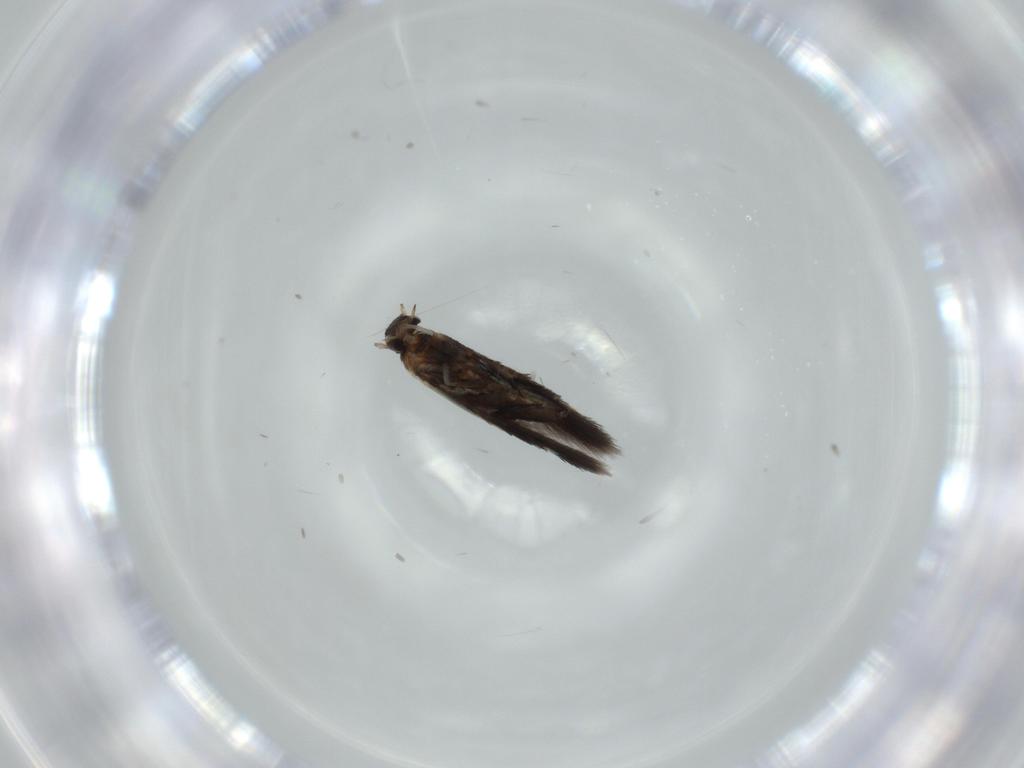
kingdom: Animalia
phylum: Arthropoda
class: Insecta
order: Lepidoptera
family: Heliozelidae
